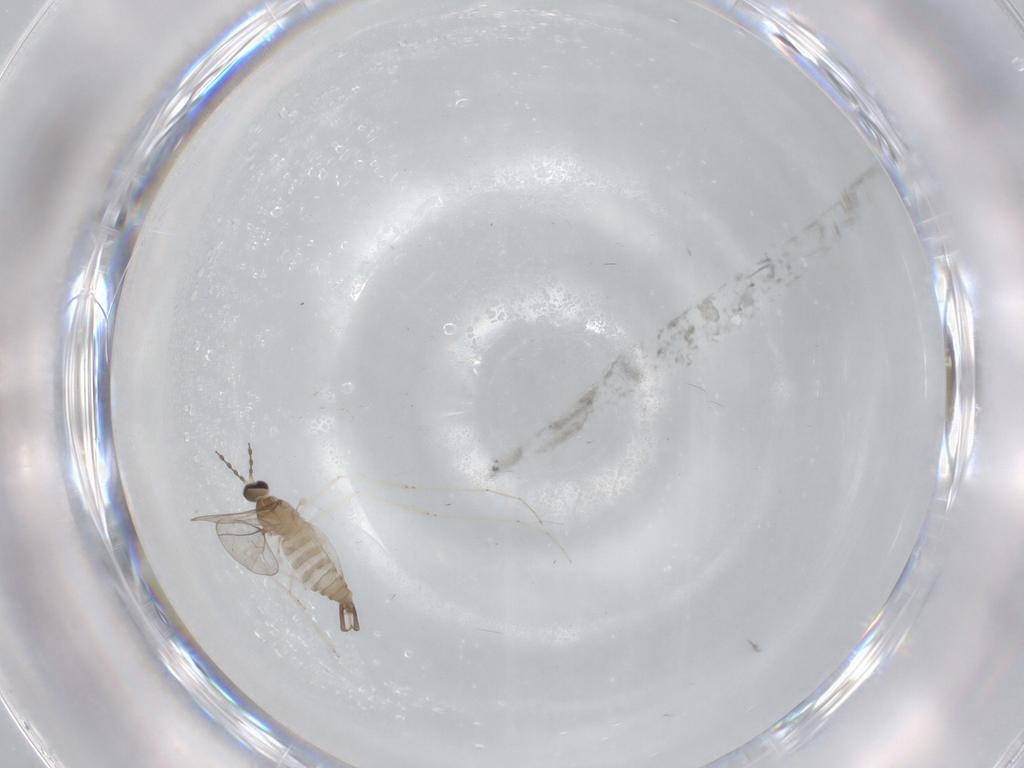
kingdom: Animalia
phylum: Arthropoda
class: Insecta
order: Diptera
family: Cecidomyiidae
